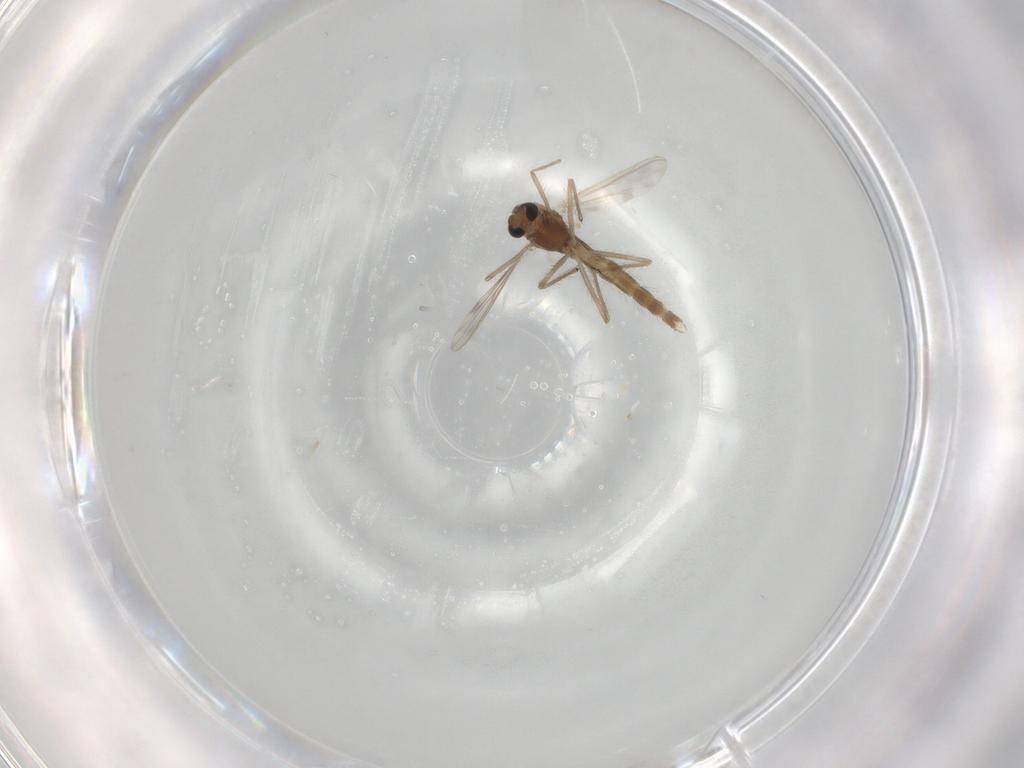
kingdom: Animalia
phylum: Arthropoda
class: Insecta
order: Diptera
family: Chironomidae
